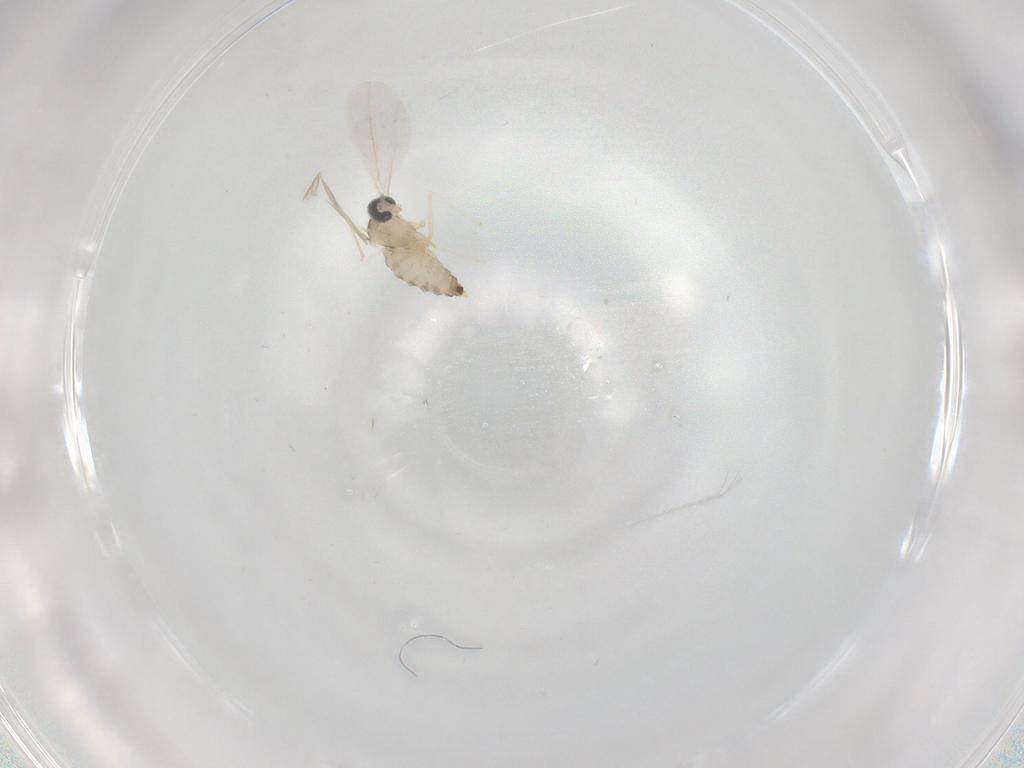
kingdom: Animalia
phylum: Arthropoda
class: Insecta
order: Diptera
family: Cecidomyiidae
